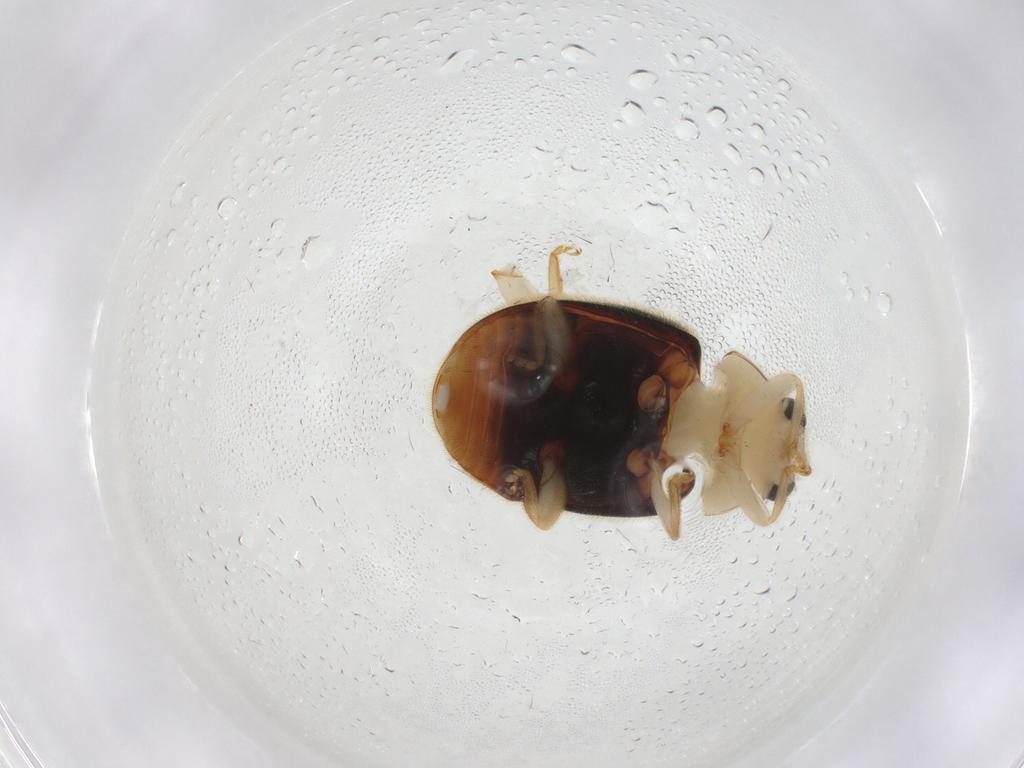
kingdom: Animalia
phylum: Arthropoda
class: Insecta
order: Coleoptera
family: Coccinellidae
